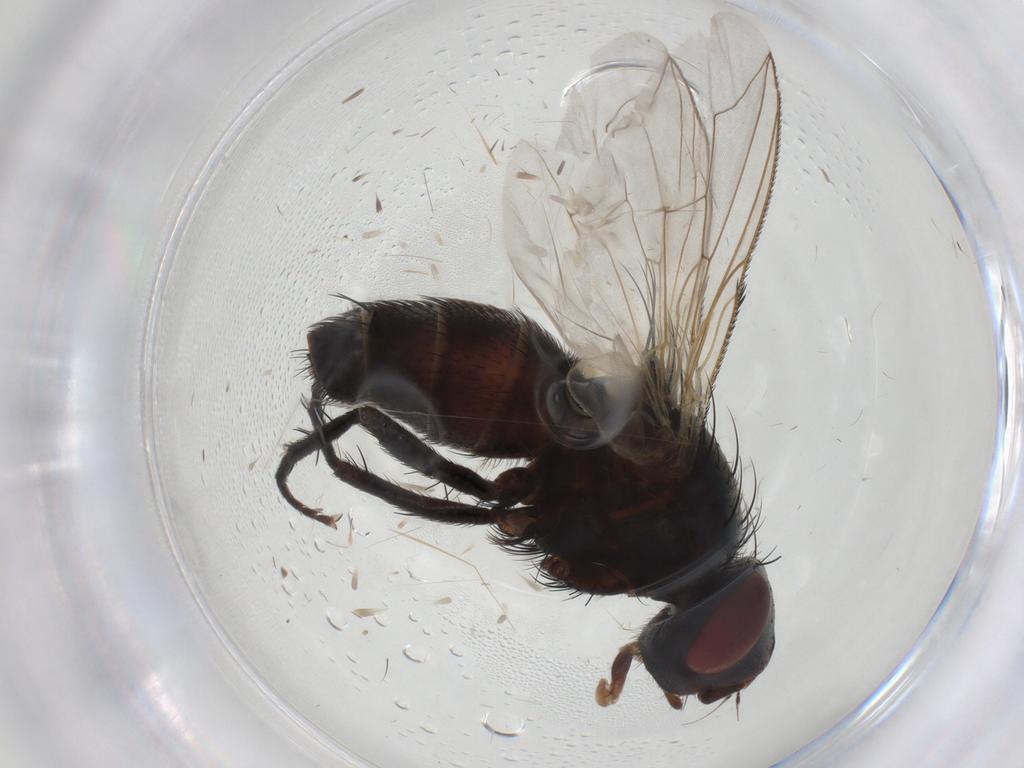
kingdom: Animalia
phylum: Arthropoda
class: Insecta
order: Diptera
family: Sarcophagidae
